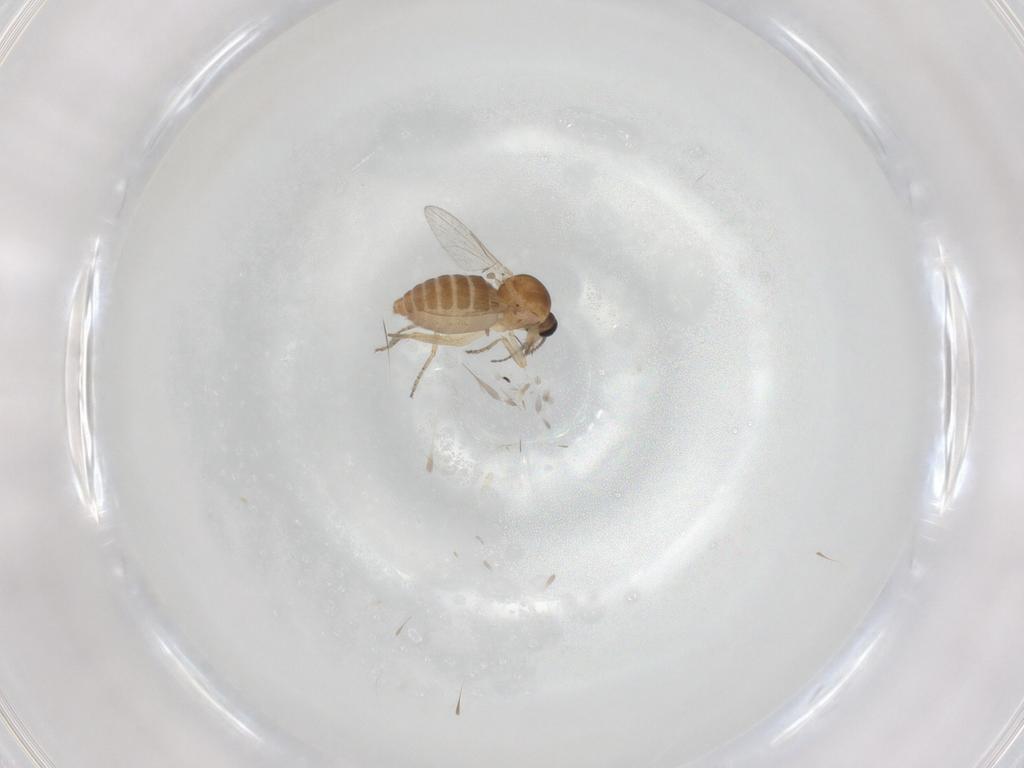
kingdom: Animalia
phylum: Arthropoda
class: Insecta
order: Diptera
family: Ceratopogonidae
